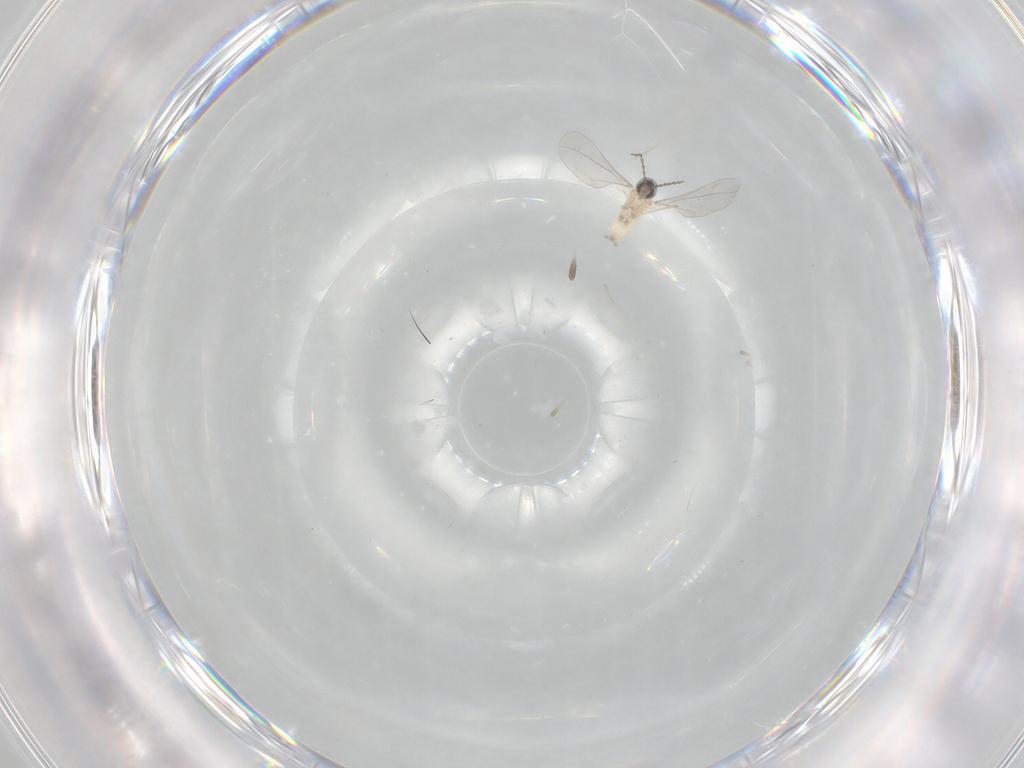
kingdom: Animalia
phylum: Arthropoda
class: Insecta
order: Diptera
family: Cecidomyiidae
